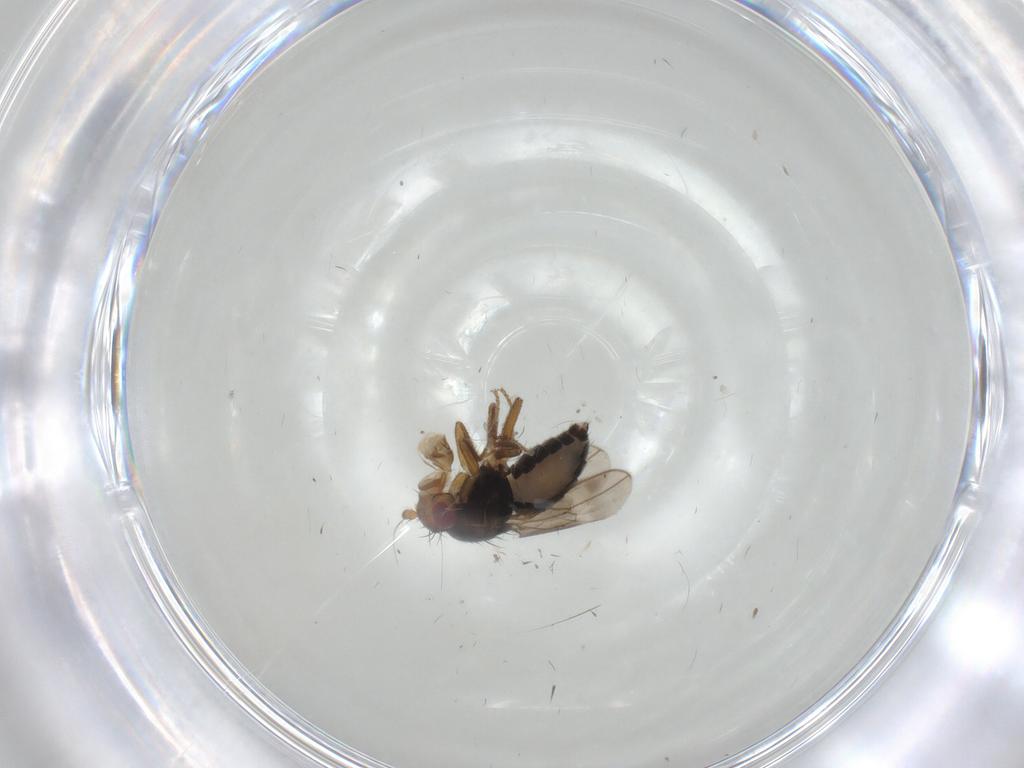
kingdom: Animalia
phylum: Arthropoda
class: Insecta
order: Diptera
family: Sphaeroceridae
